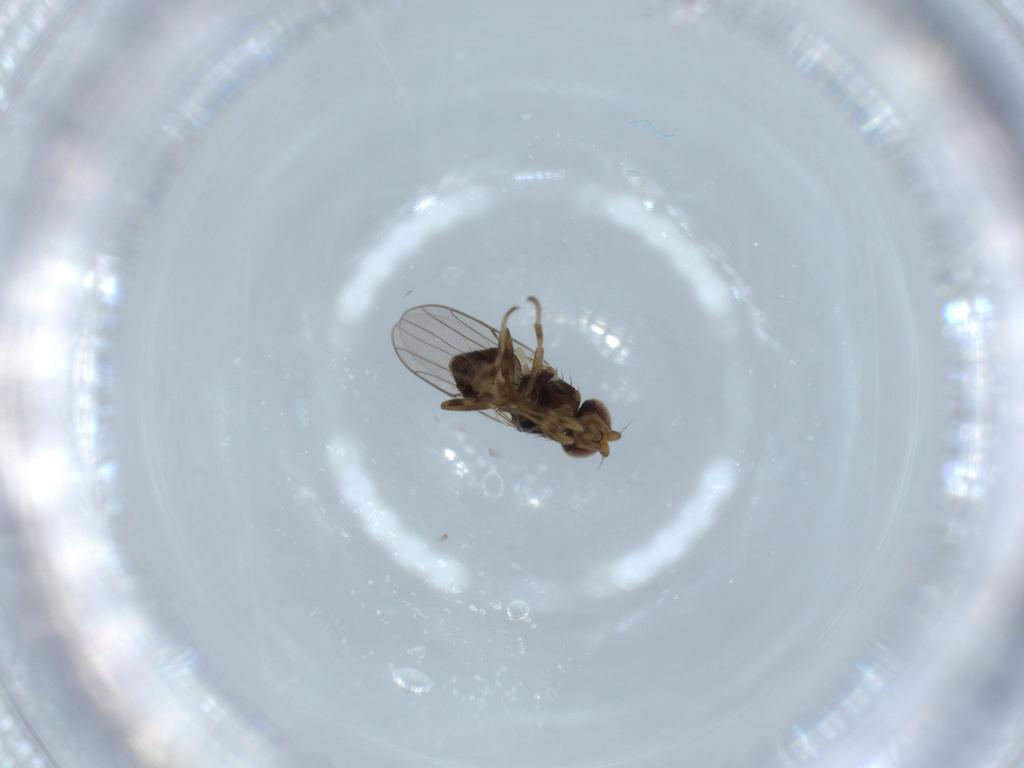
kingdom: Animalia
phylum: Arthropoda
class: Insecta
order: Diptera
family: Chloropidae
